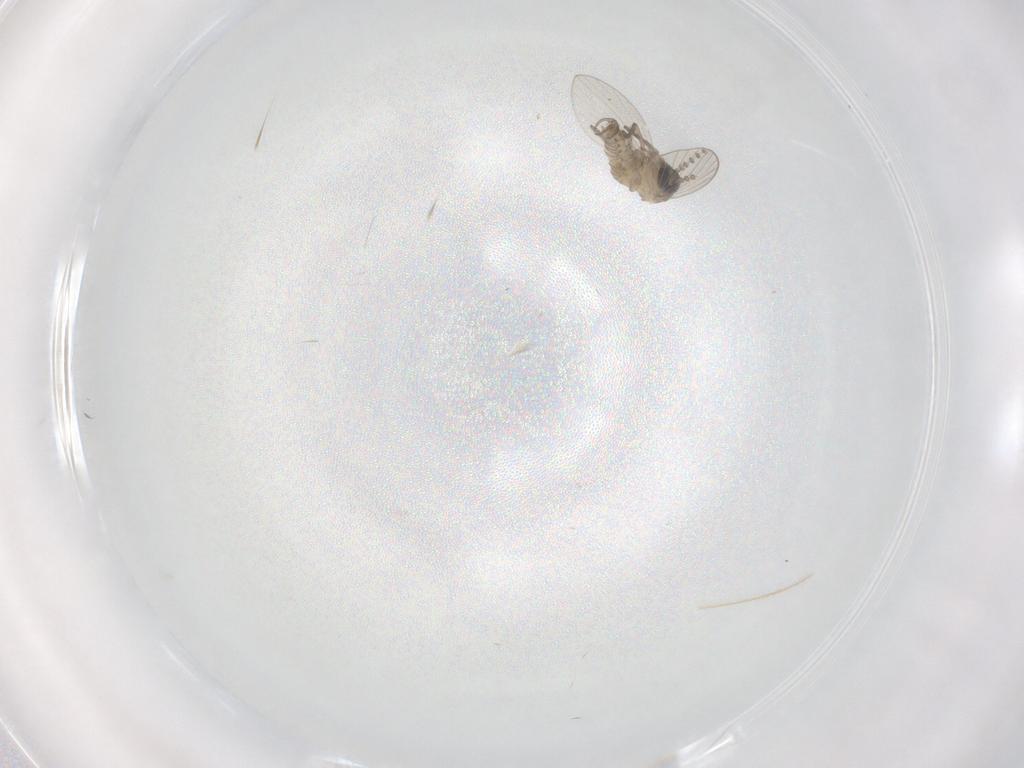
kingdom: Animalia
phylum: Arthropoda
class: Insecta
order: Diptera
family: Psychodidae
